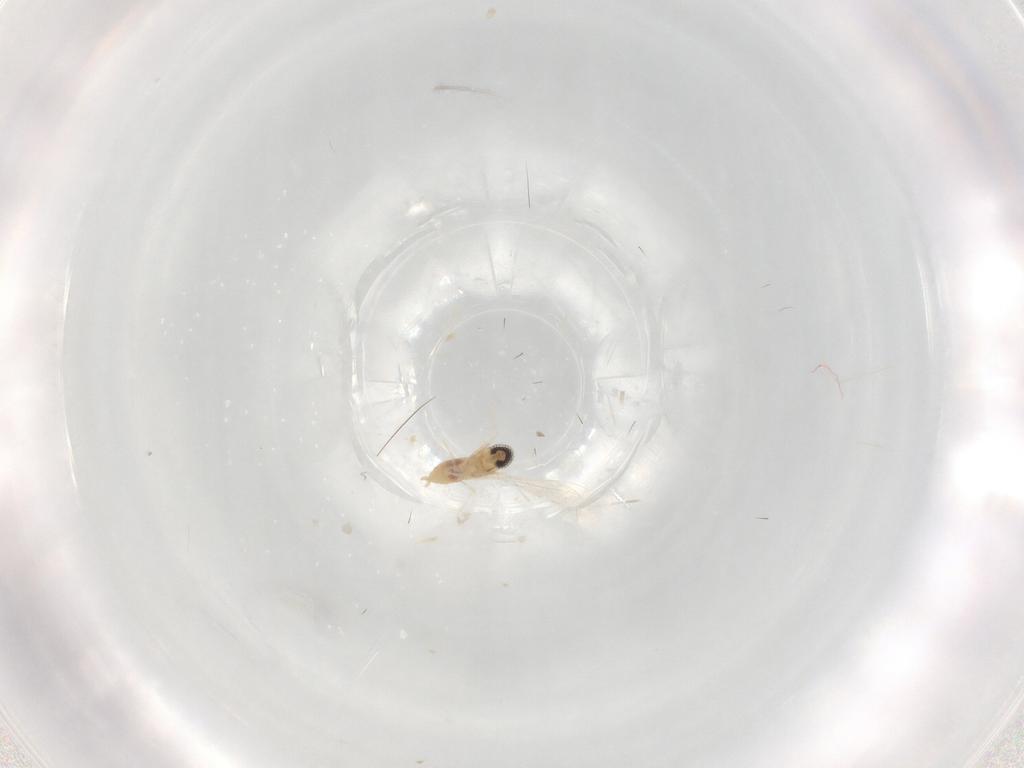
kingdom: Animalia
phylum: Arthropoda
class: Insecta
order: Diptera
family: Cecidomyiidae
